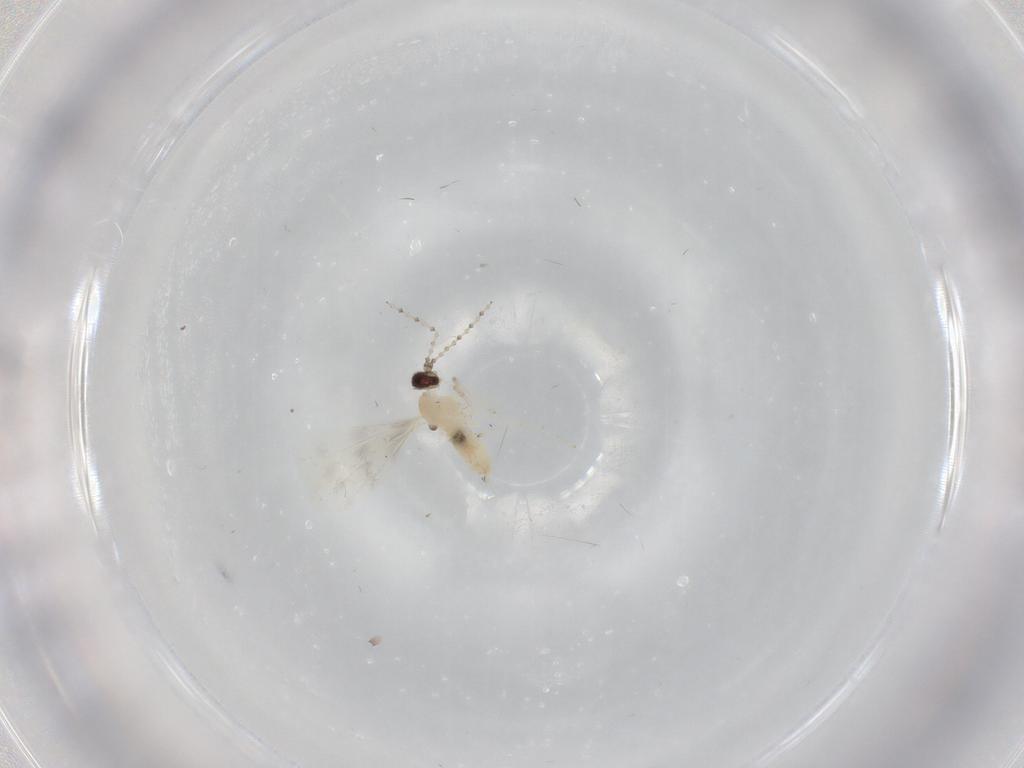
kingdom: Animalia
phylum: Arthropoda
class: Insecta
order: Diptera
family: Cecidomyiidae
